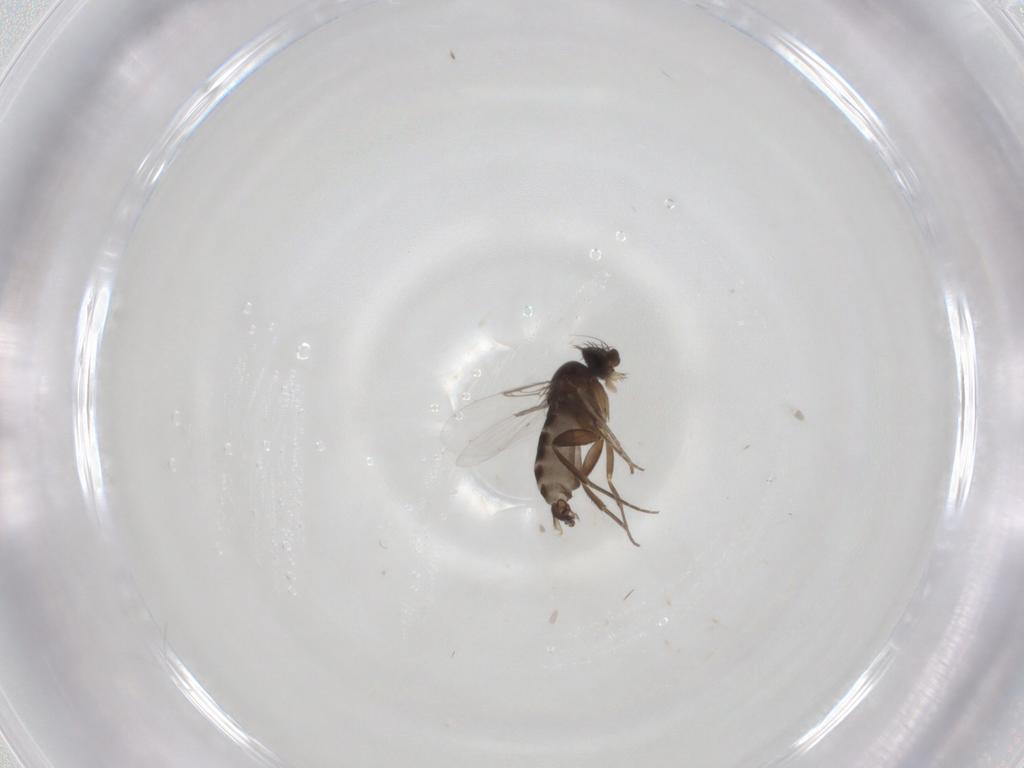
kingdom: Animalia
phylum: Arthropoda
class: Insecta
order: Diptera
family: Phoridae
